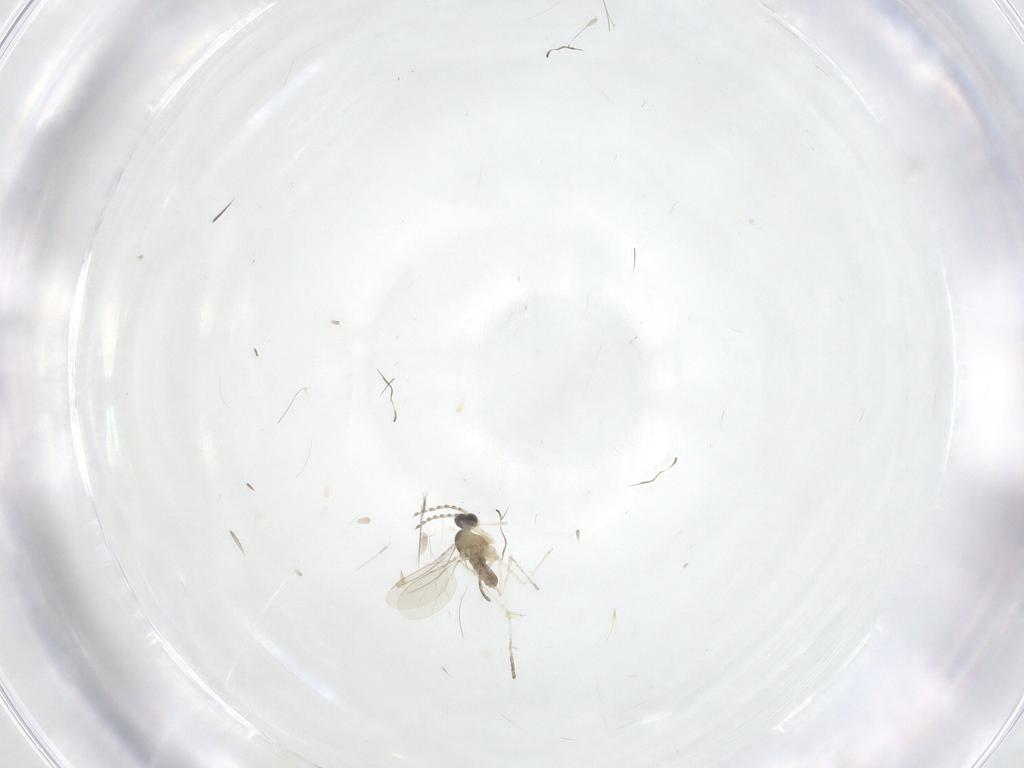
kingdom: Animalia
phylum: Arthropoda
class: Insecta
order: Diptera
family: Cecidomyiidae
